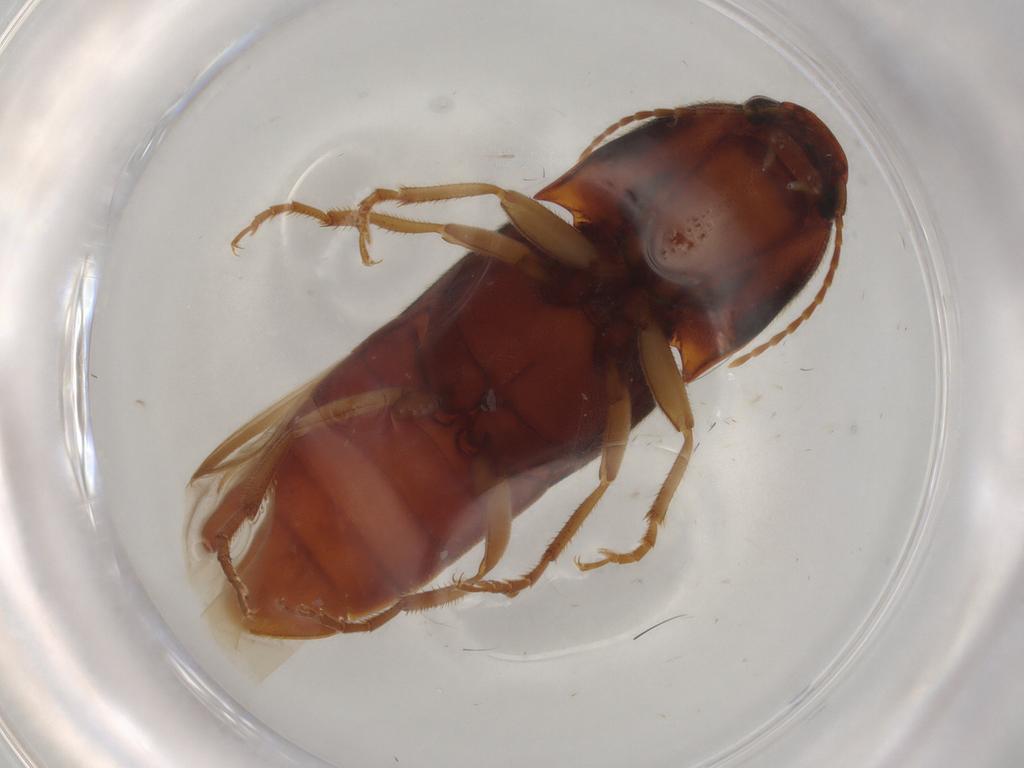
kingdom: Animalia
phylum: Arthropoda
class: Insecta
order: Coleoptera
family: Elateridae
